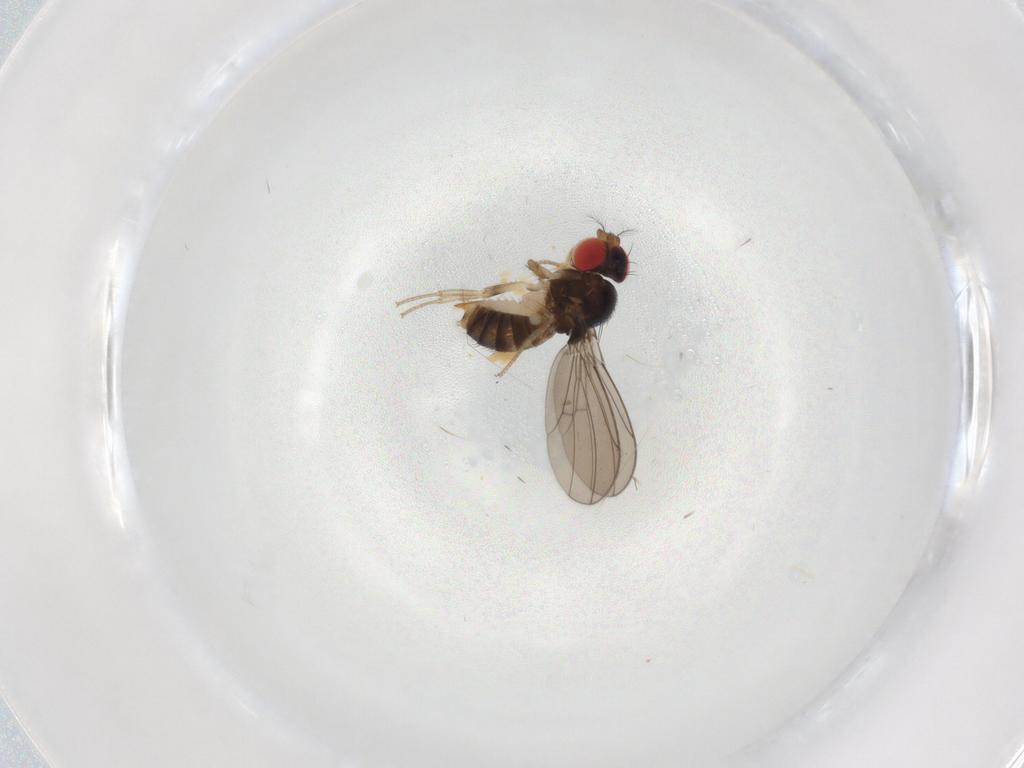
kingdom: Animalia
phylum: Arthropoda
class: Insecta
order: Diptera
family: Drosophilidae
